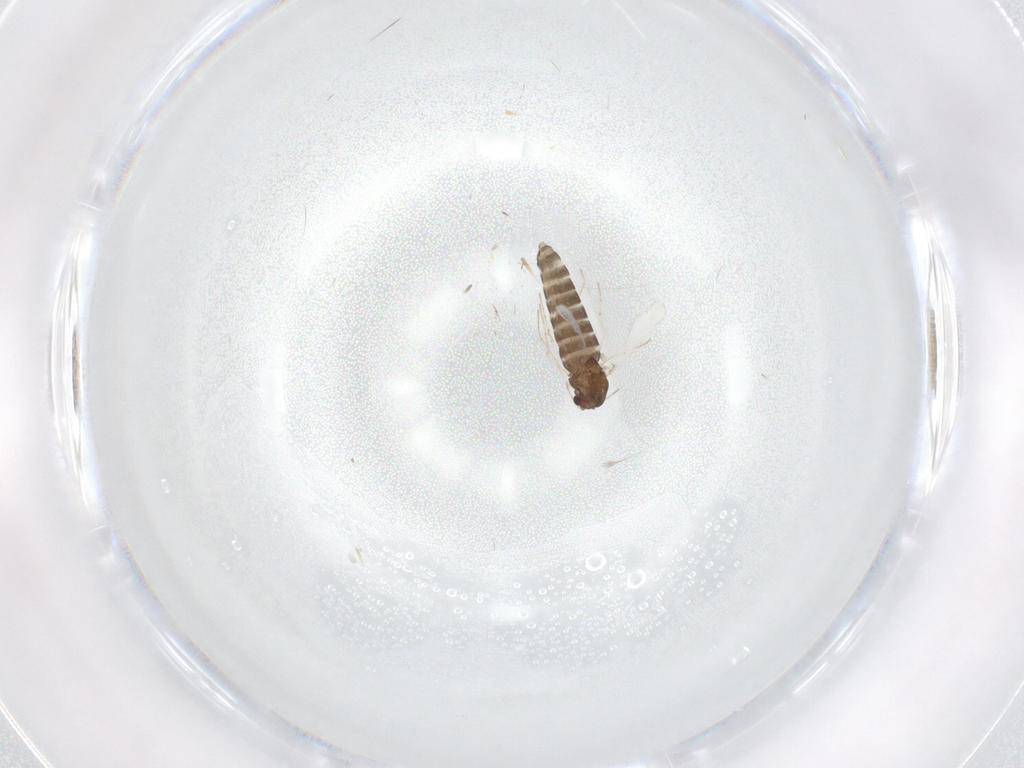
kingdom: Animalia
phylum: Arthropoda
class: Insecta
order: Diptera
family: Chironomidae
